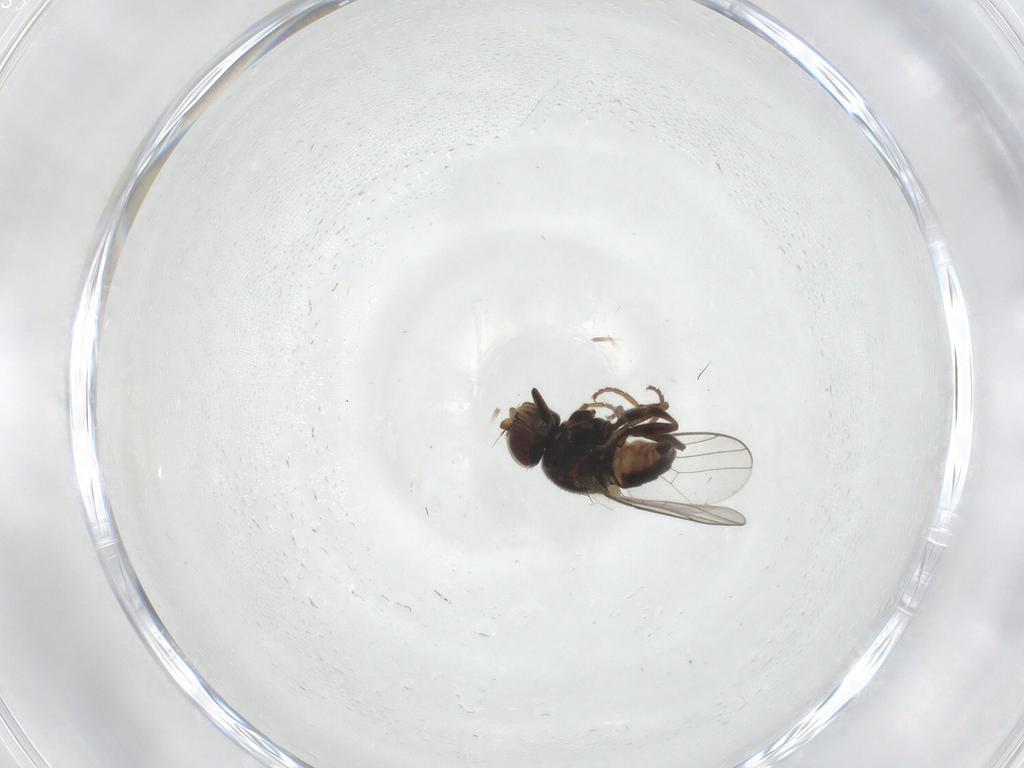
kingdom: Animalia
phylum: Arthropoda
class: Insecta
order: Diptera
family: Chloropidae
